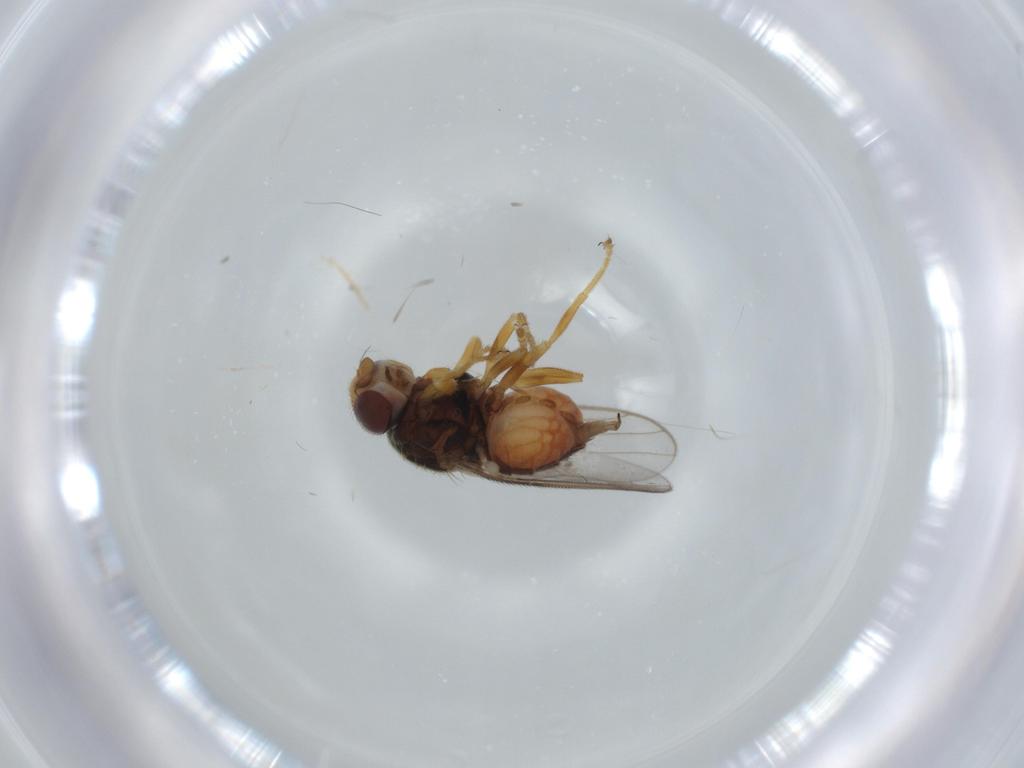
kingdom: Animalia
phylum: Arthropoda
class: Insecta
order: Diptera
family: Chloropidae
